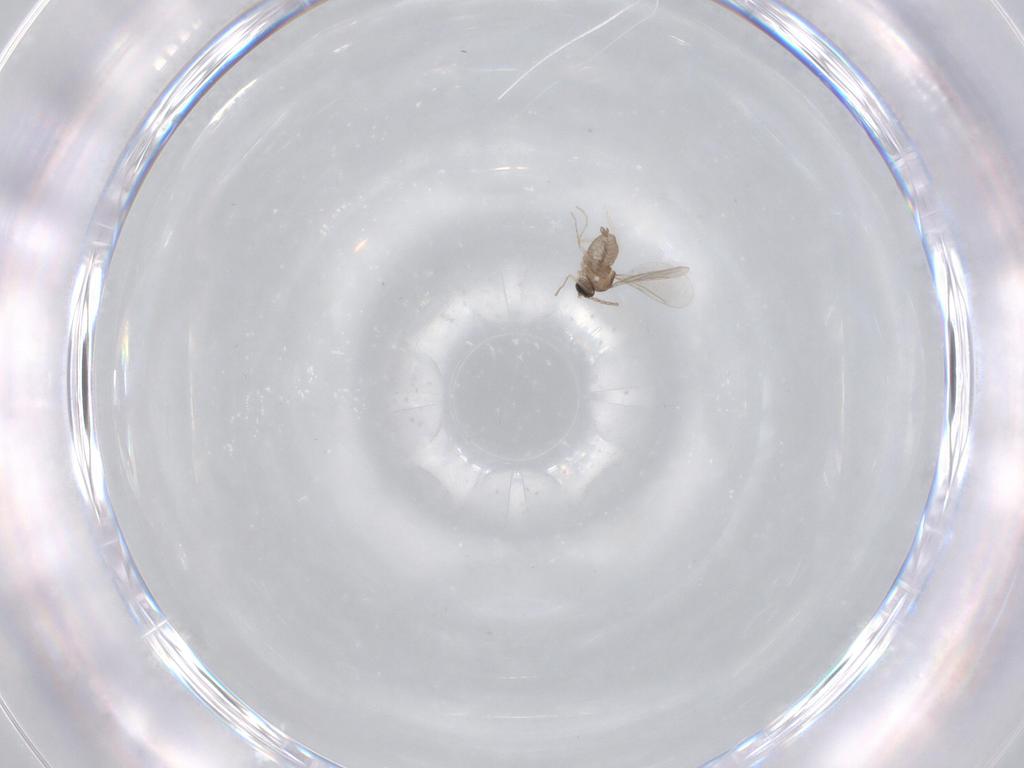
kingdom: Animalia
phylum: Arthropoda
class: Insecta
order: Diptera
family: Cecidomyiidae
